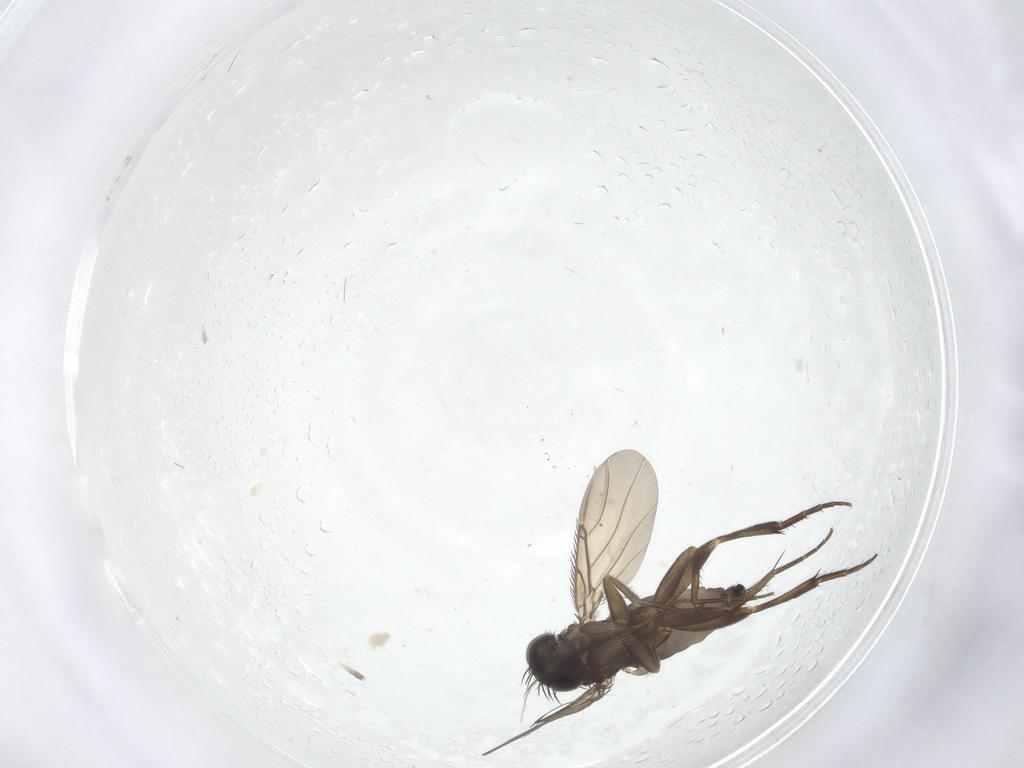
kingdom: Animalia
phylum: Arthropoda
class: Insecta
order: Diptera
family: Phoridae
